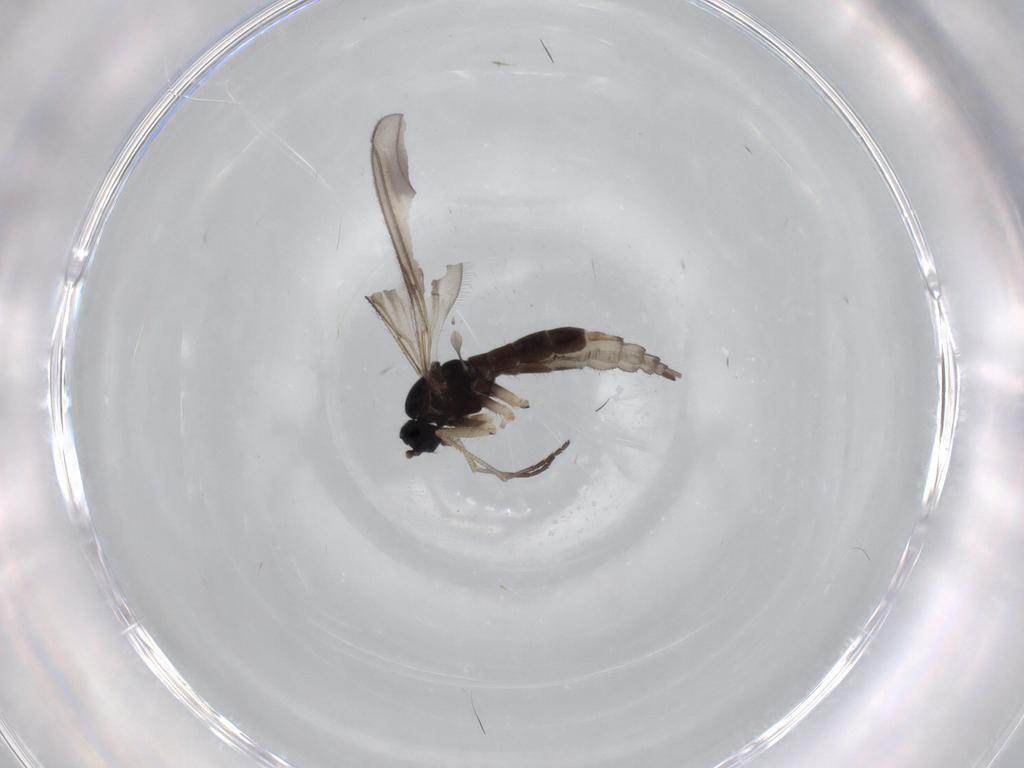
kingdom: Animalia
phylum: Arthropoda
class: Insecta
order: Diptera
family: Sciaridae
